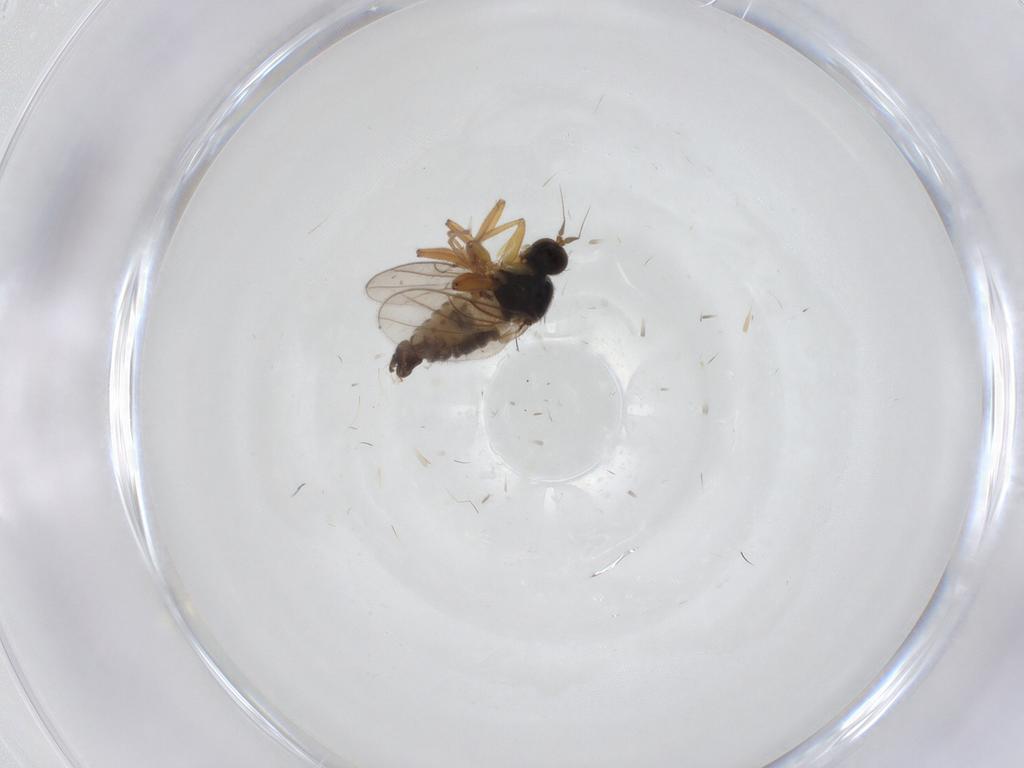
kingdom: Animalia
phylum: Arthropoda
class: Insecta
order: Diptera
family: Hybotidae
